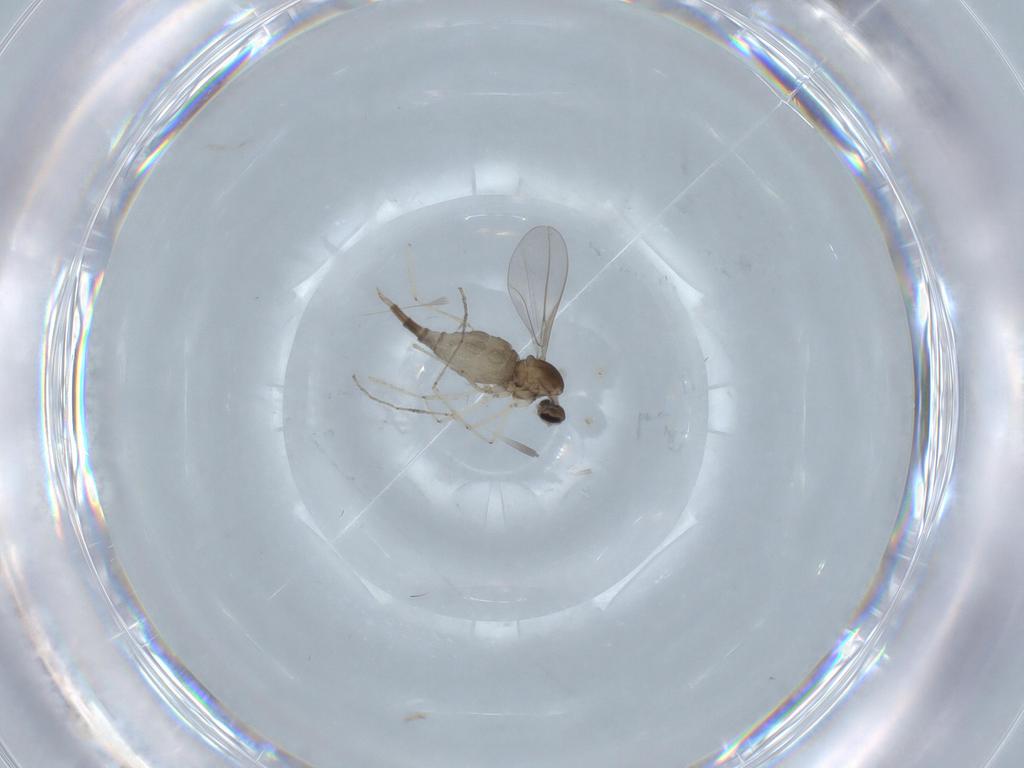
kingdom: Animalia
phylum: Arthropoda
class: Insecta
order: Diptera
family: Cecidomyiidae
